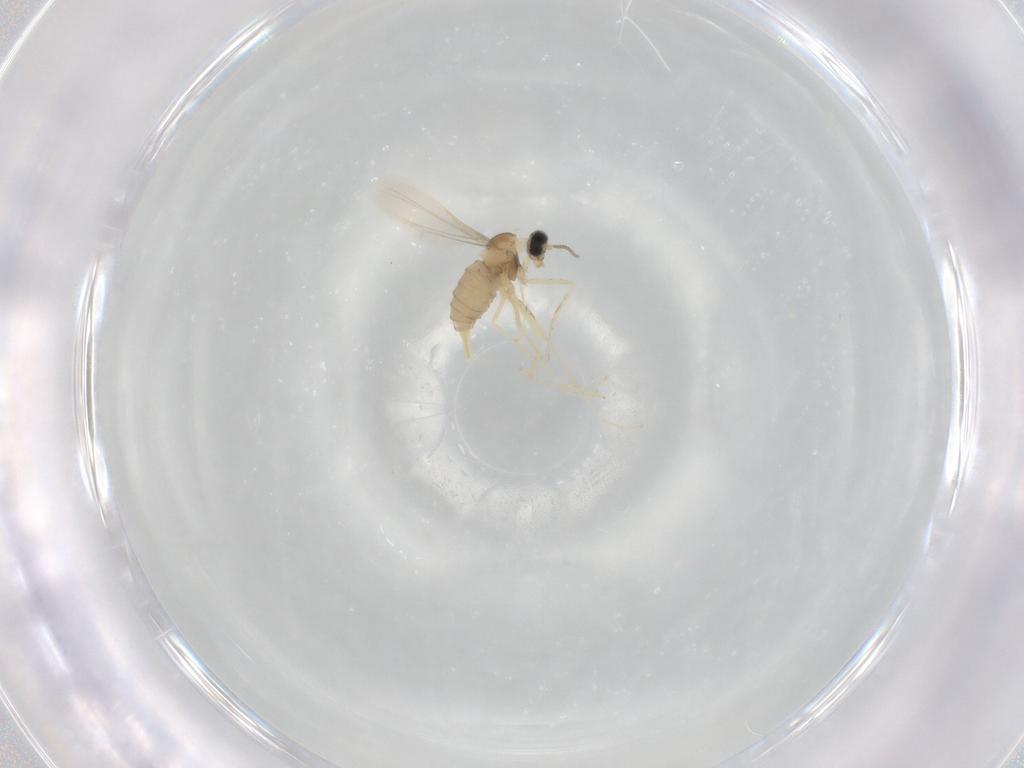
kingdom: Animalia
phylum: Arthropoda
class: Insecta
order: Diptera
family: Cecidomyiidae
